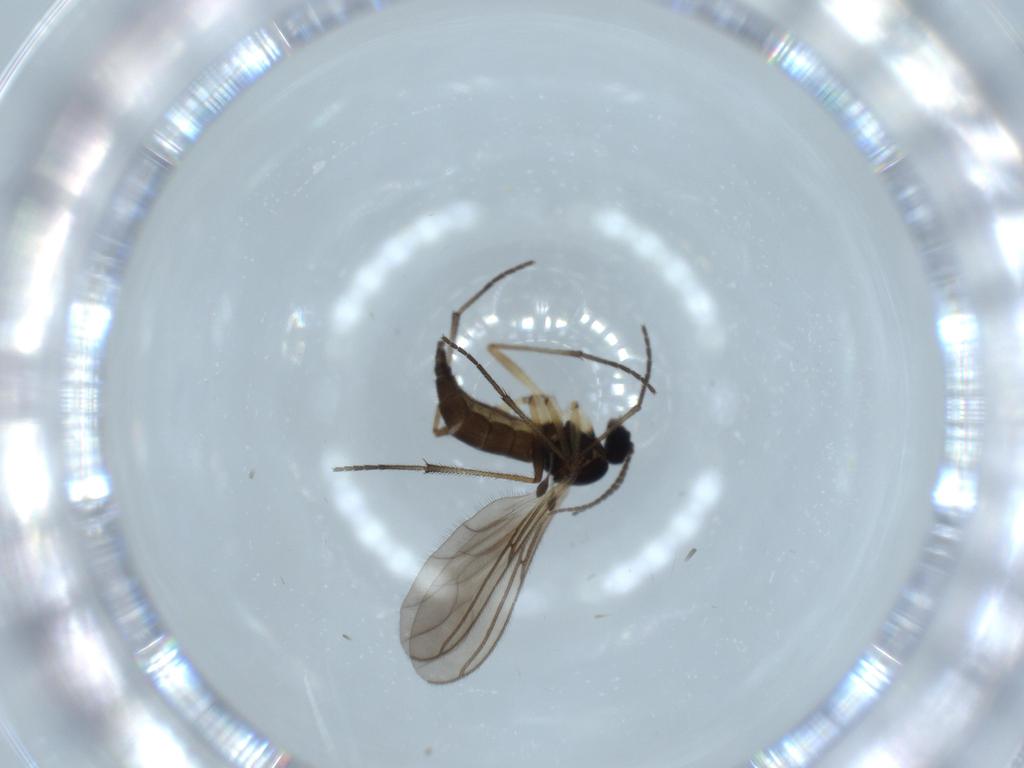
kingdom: Animalia
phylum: Arthropoda
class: Insecta
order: Diptera
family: Sciaridae
